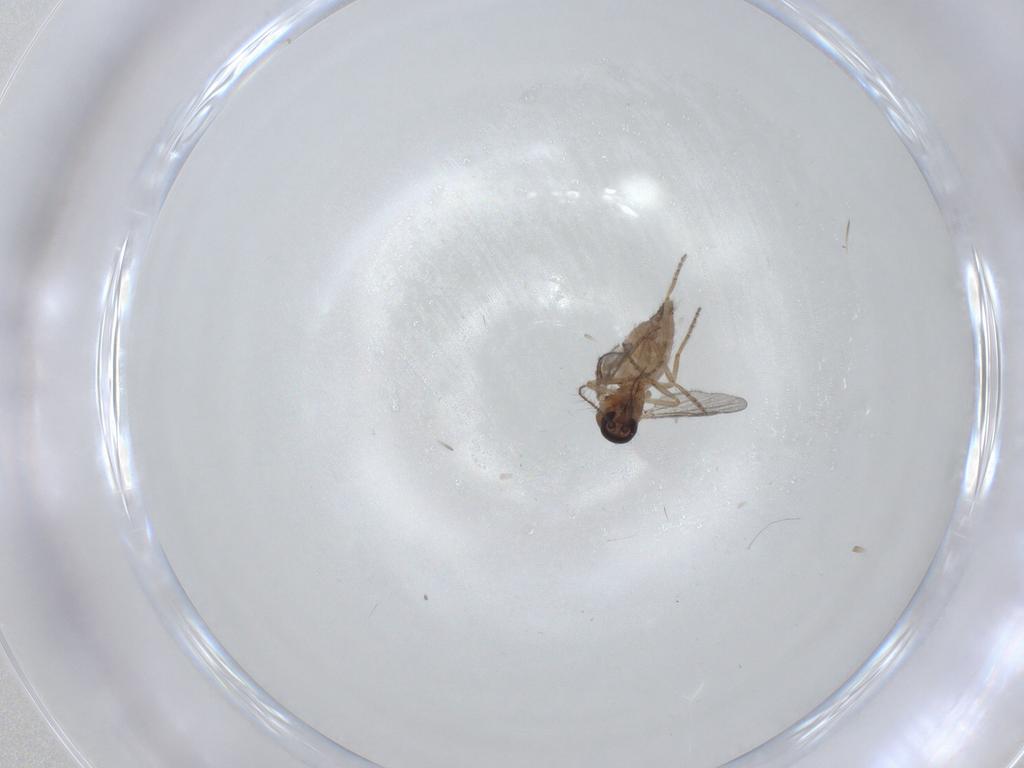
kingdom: Animalia
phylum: Arthropoda
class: Insecta
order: Diptera
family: Ceratopogonidae
